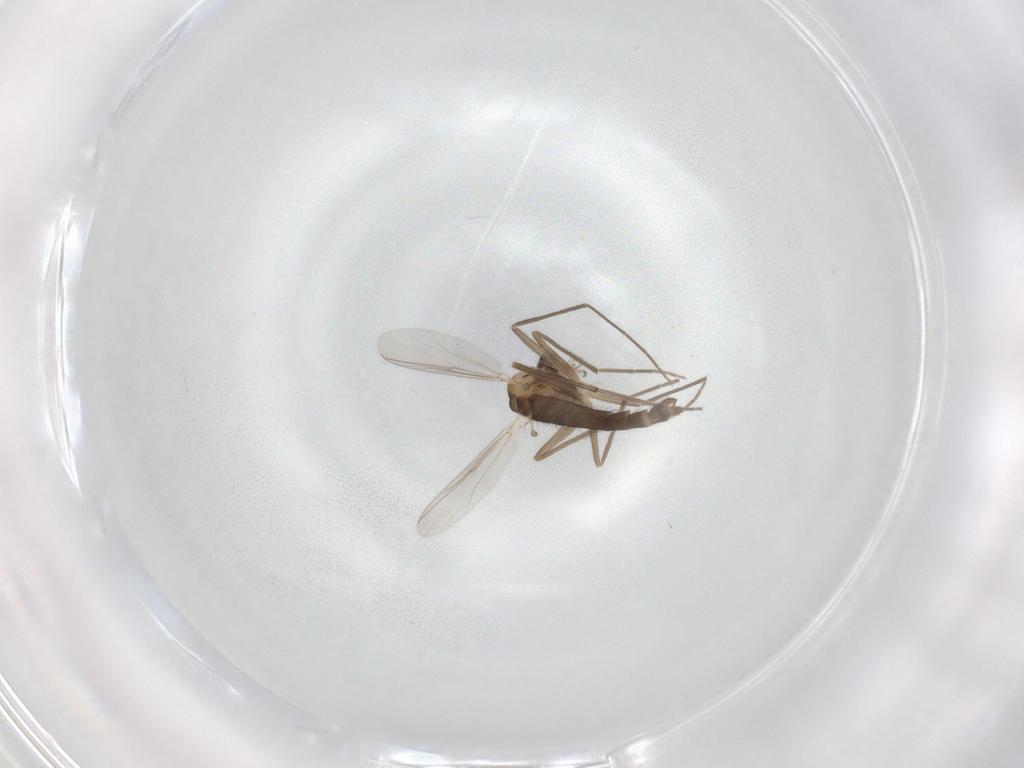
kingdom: Animalia
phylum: Arthropoda
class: Insecta
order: Diptera
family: Chironomidae
